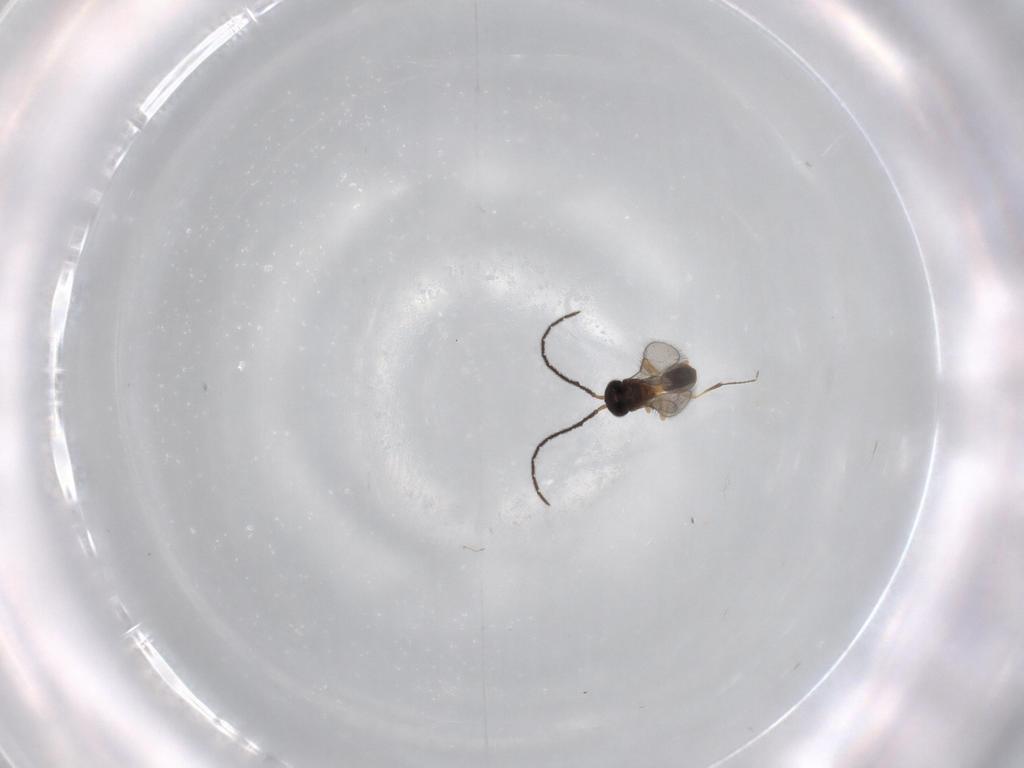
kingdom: Animalia
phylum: Arthropoda
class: Insecta
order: Hymenoptera
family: Scelionidae
